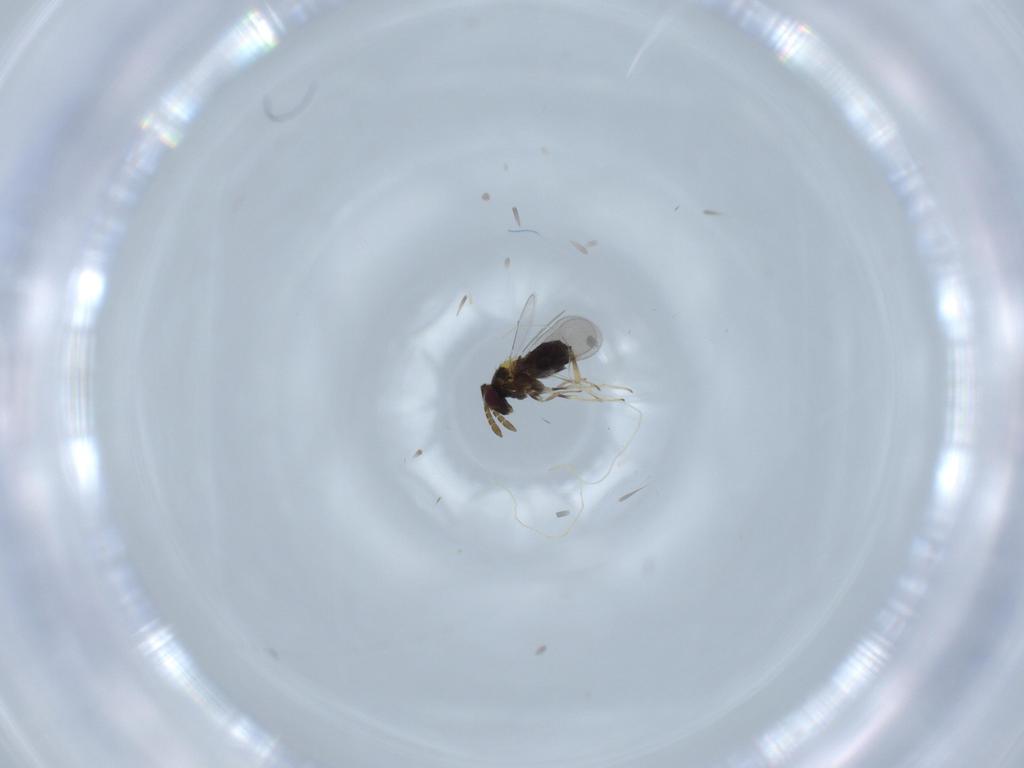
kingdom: Animalia
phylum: Arthropoda
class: Insecta
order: Hymenoptera
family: Aphelinidae
